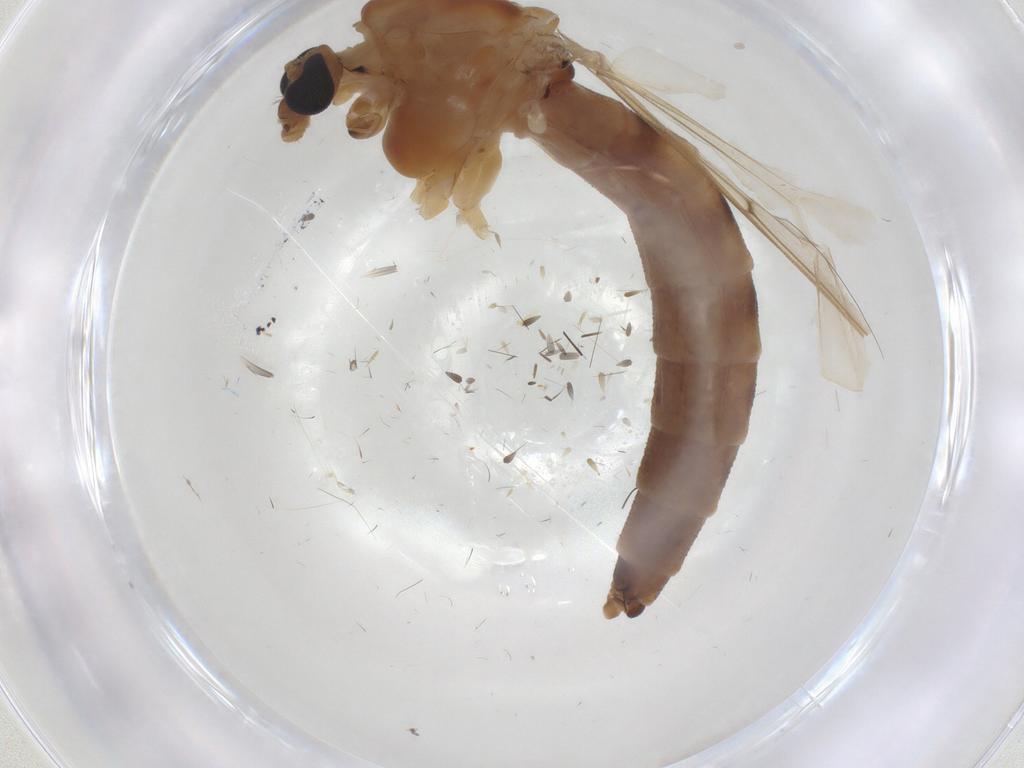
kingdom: Animalia
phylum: Arthropoda
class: Insecta
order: Diptera
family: Chironomidae
